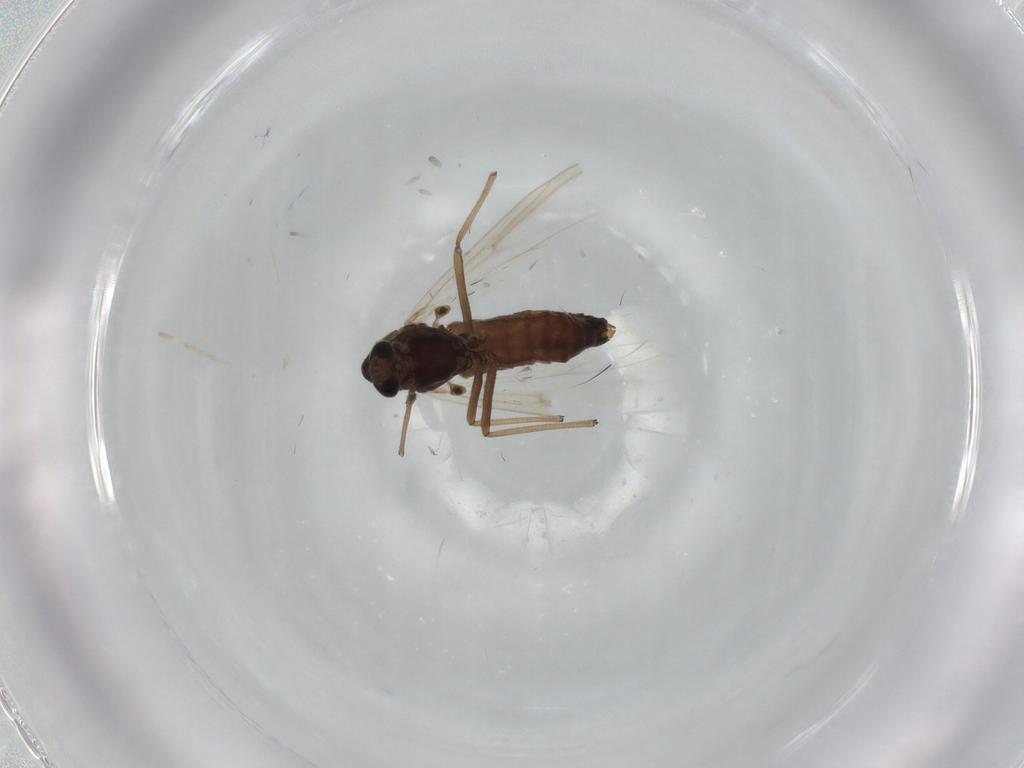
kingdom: Animalia
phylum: Arthropoda
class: Insecta
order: Diptera
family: Chironomidae
